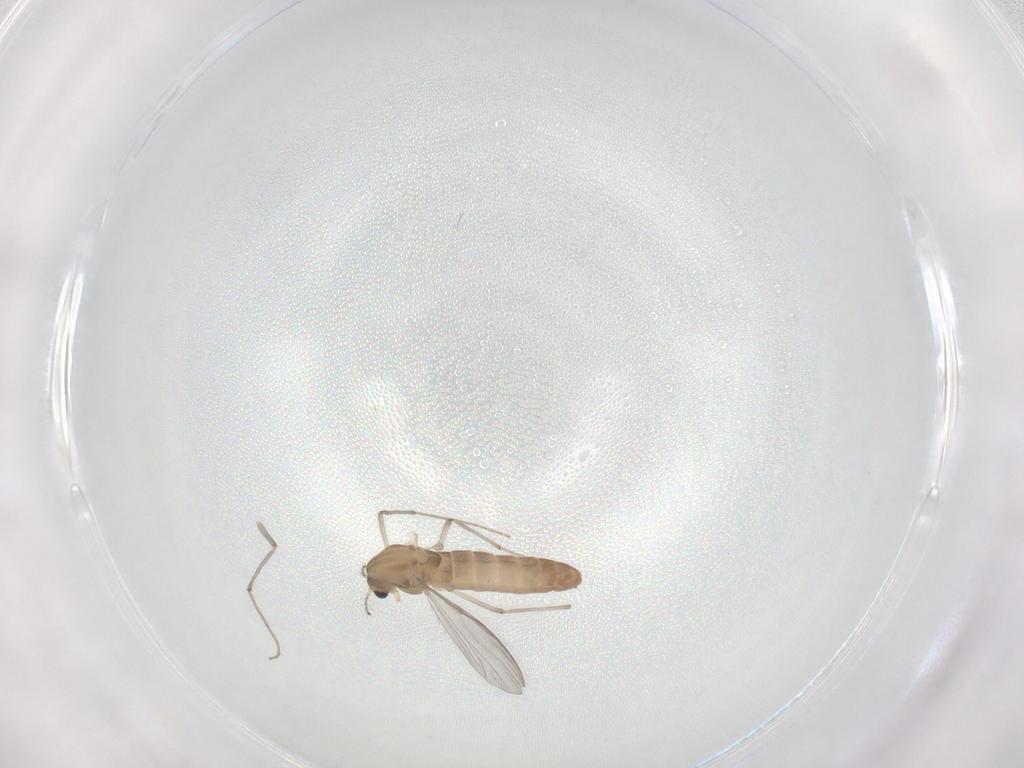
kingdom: Animalia
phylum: Arthropoda
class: Insecta
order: Diptera
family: Chironomidae
